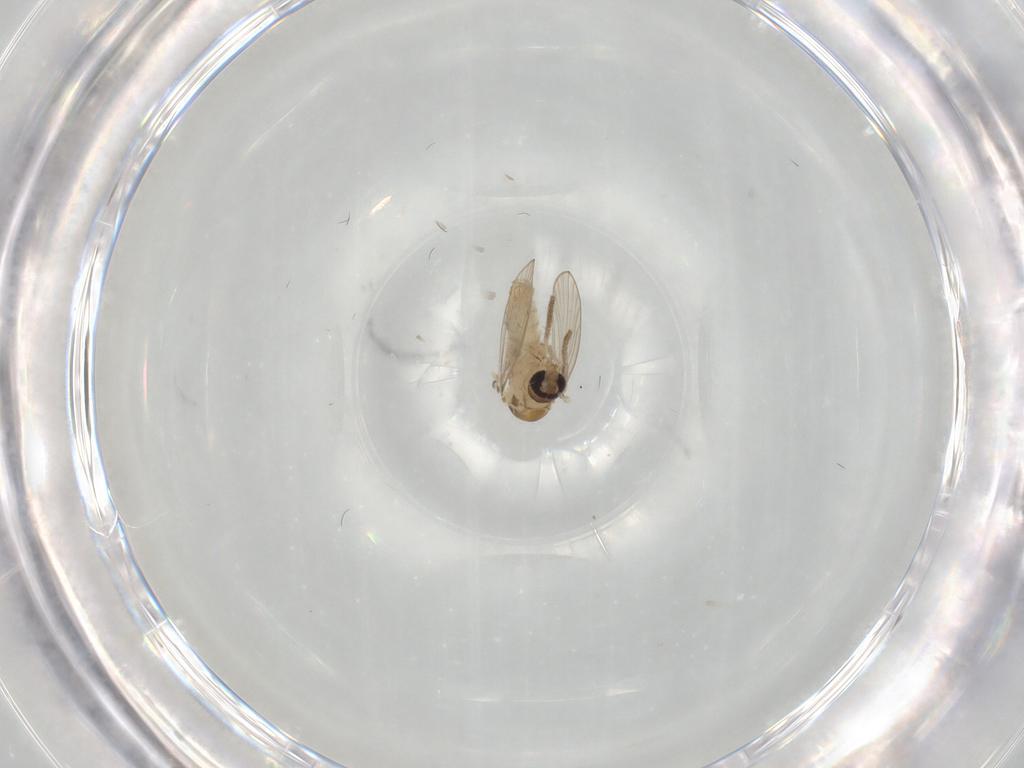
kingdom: Animalia
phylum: Arthropoda
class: Insecta
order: Diptera
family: Psychodidae
